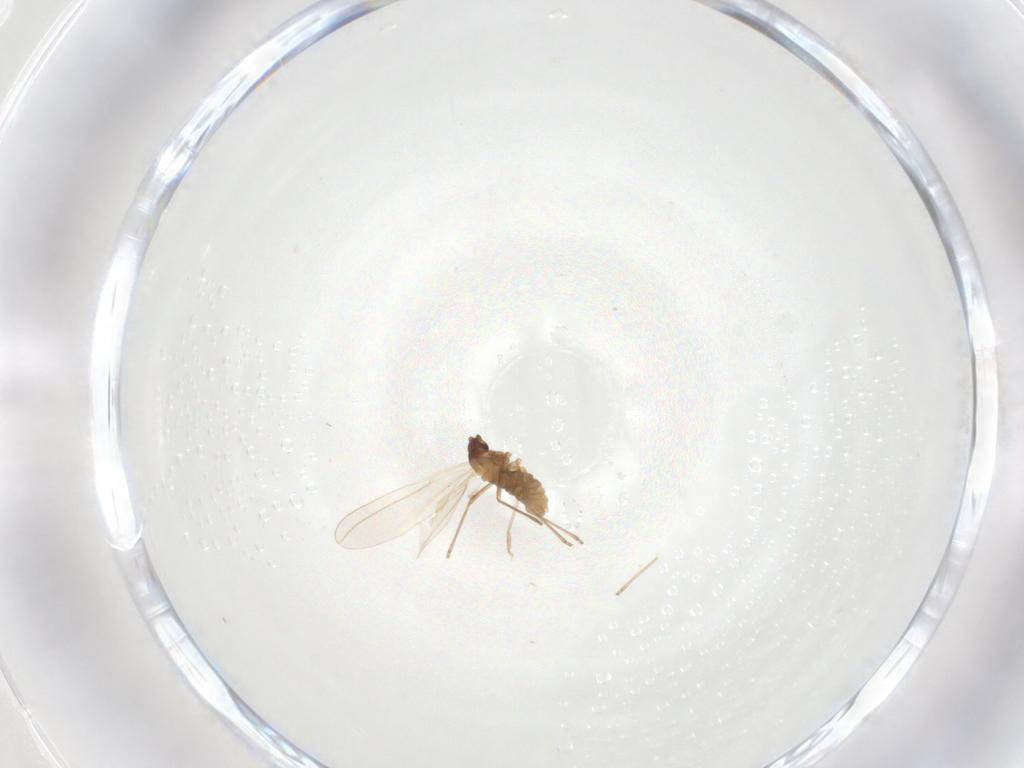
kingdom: Animalia
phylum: Arthropoda
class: Insecta
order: Diptera
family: Cecidomyiidae
